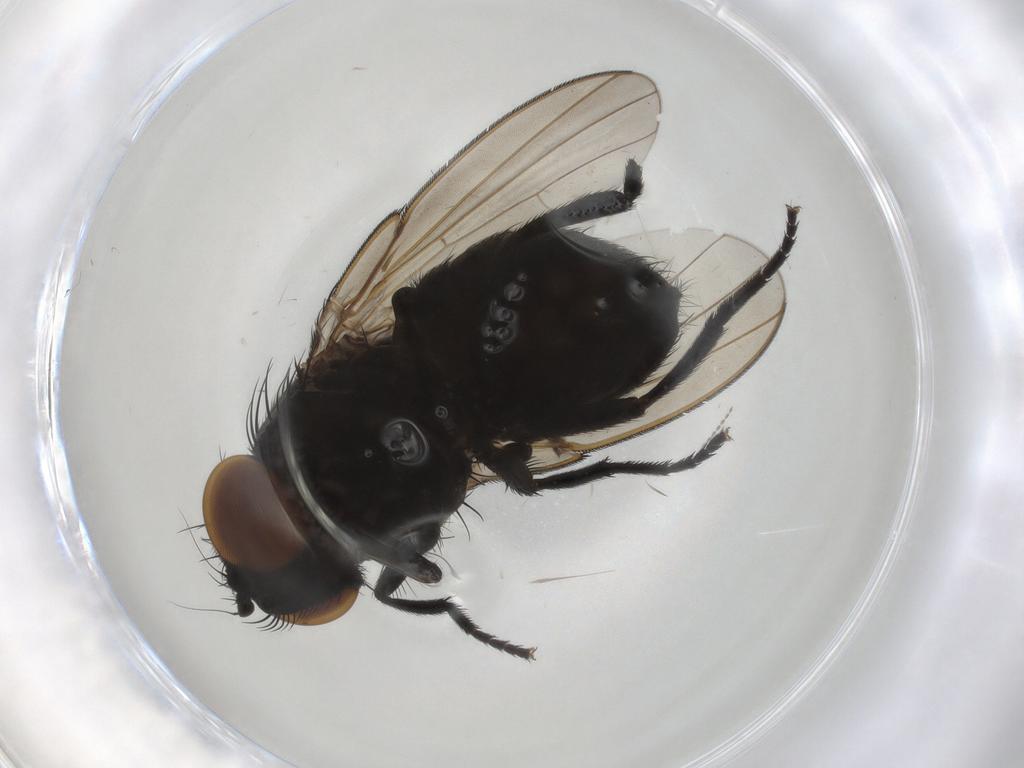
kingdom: Animalia
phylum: Arthropoda
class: Insecta
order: Diptera
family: Milichiidae
